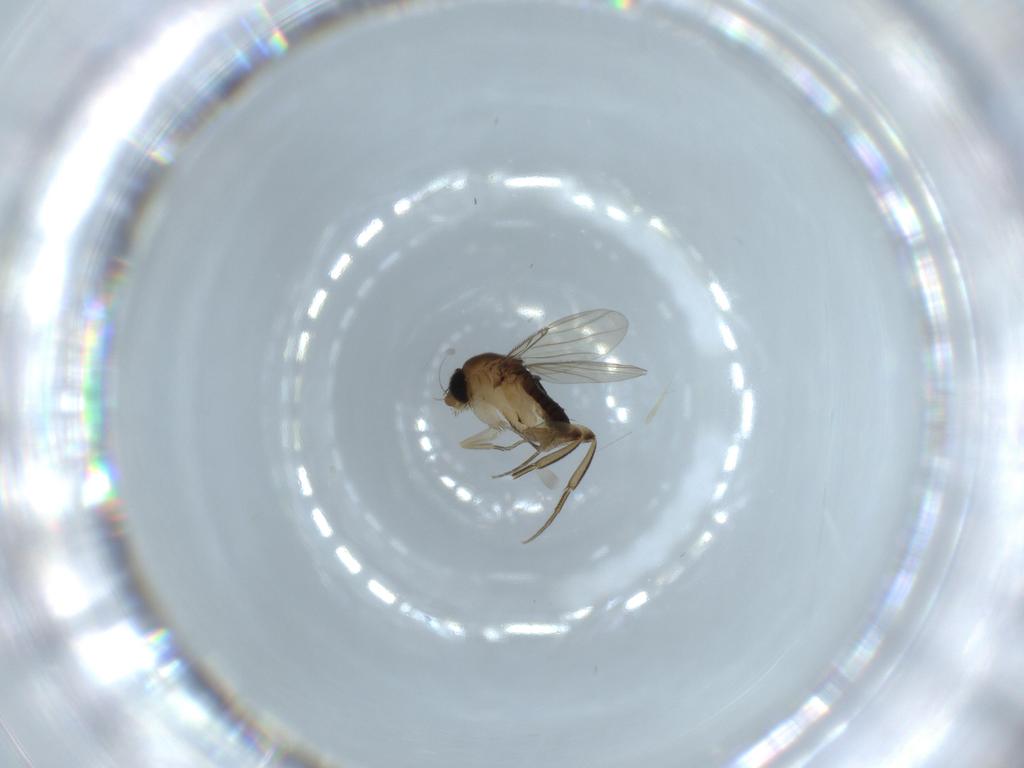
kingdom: Animalia
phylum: Arthropoda
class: Insecta
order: Diptera
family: Phoridae
